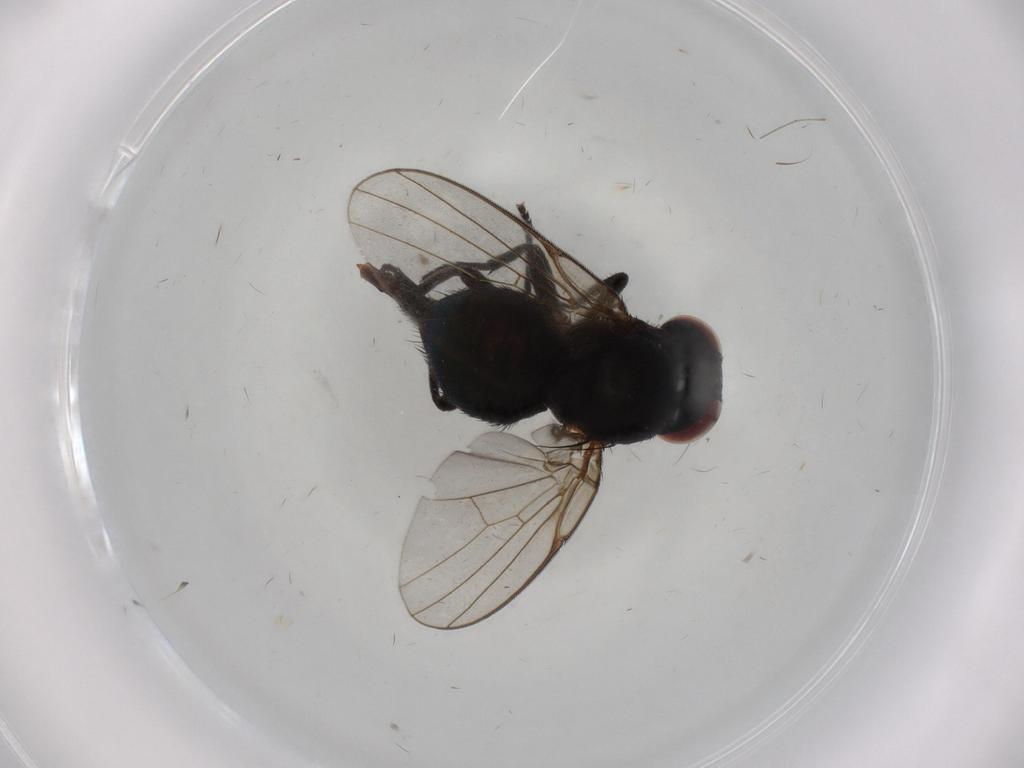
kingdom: Animalia
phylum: Arthropoda
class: Insecta
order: Diptera
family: Agromyzidae
